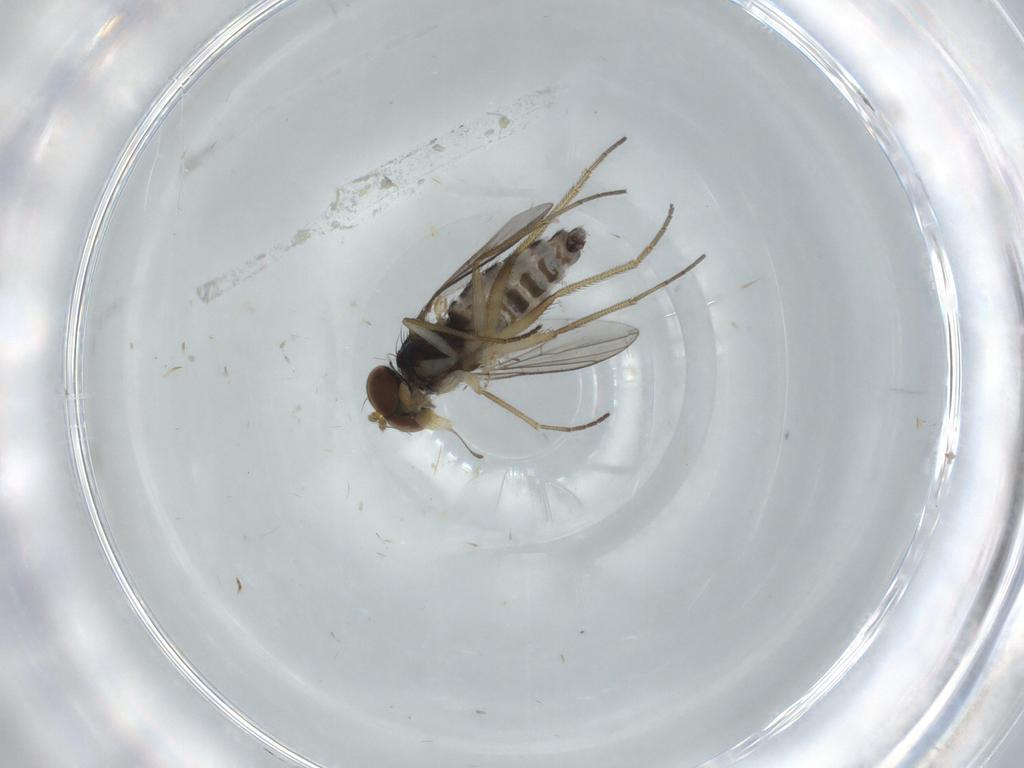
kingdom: Animalia
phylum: Arthropoda
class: Insecta
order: Diptera
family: Dolichopodidae
